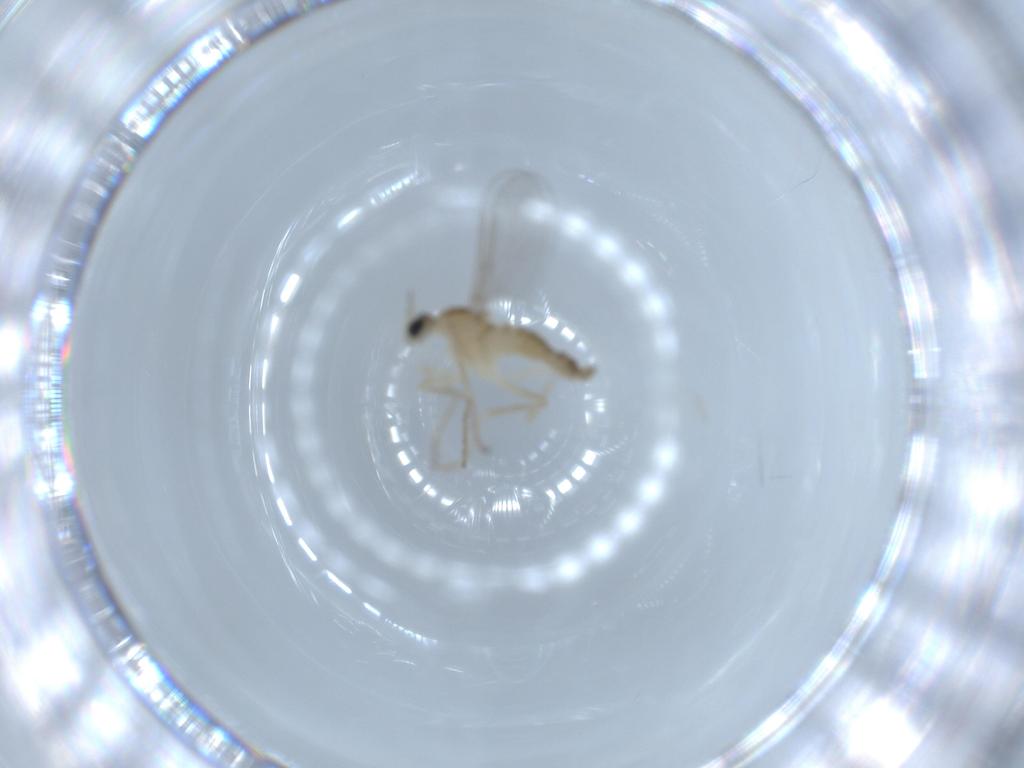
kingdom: Animalia
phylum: Arthropoda
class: Insecta
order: Diptera
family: Cecidomyiidae
